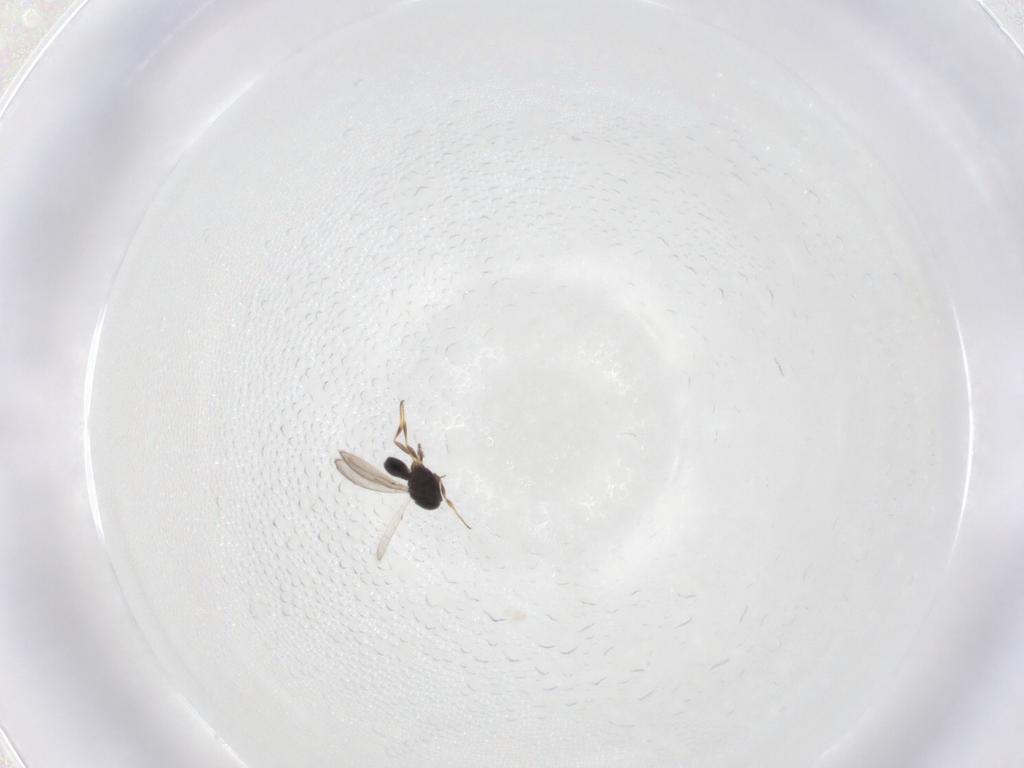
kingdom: Animalia
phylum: Arthropoda
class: Insecta
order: Hymenoptera
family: Scelionidae
